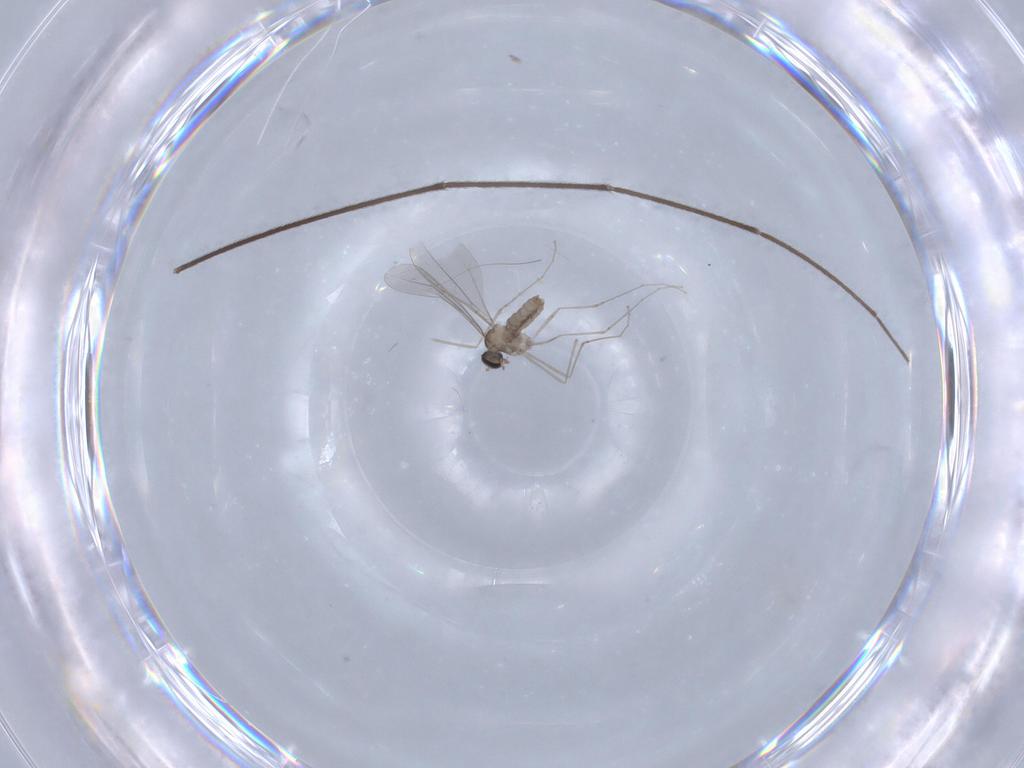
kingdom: Animalia
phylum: Arthropoda
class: Insecta
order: Diptera
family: Cecidomyiidae
